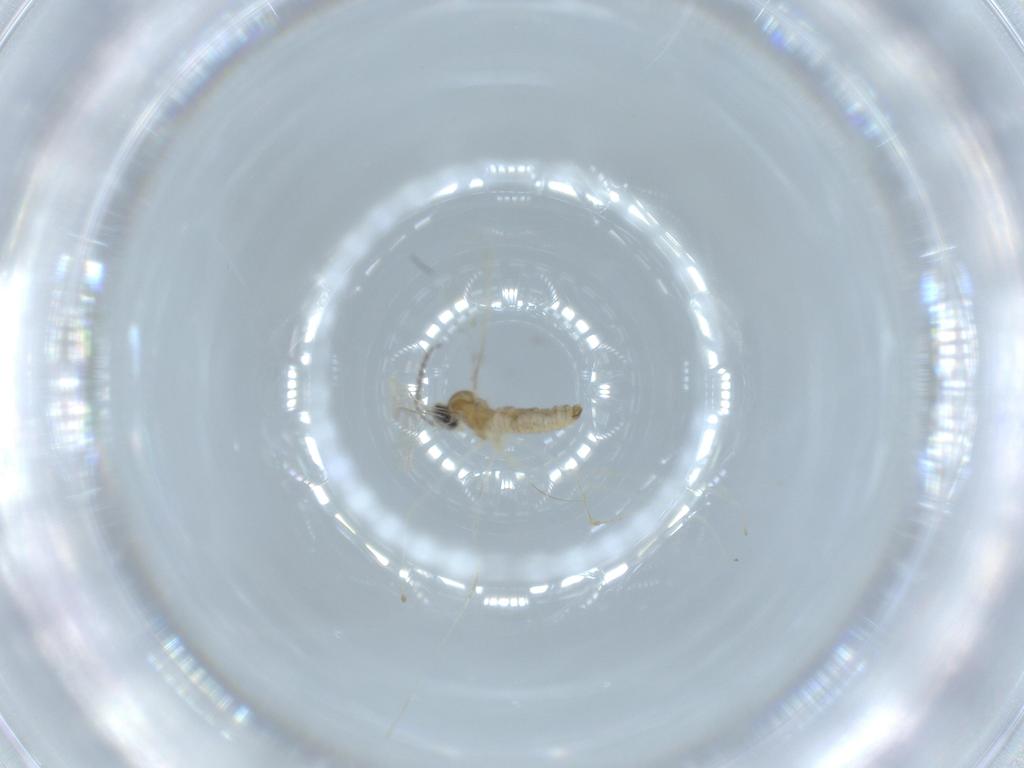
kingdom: Animalia
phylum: Arthropoda
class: Insecta
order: Diptera
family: Cecidomyiidae
